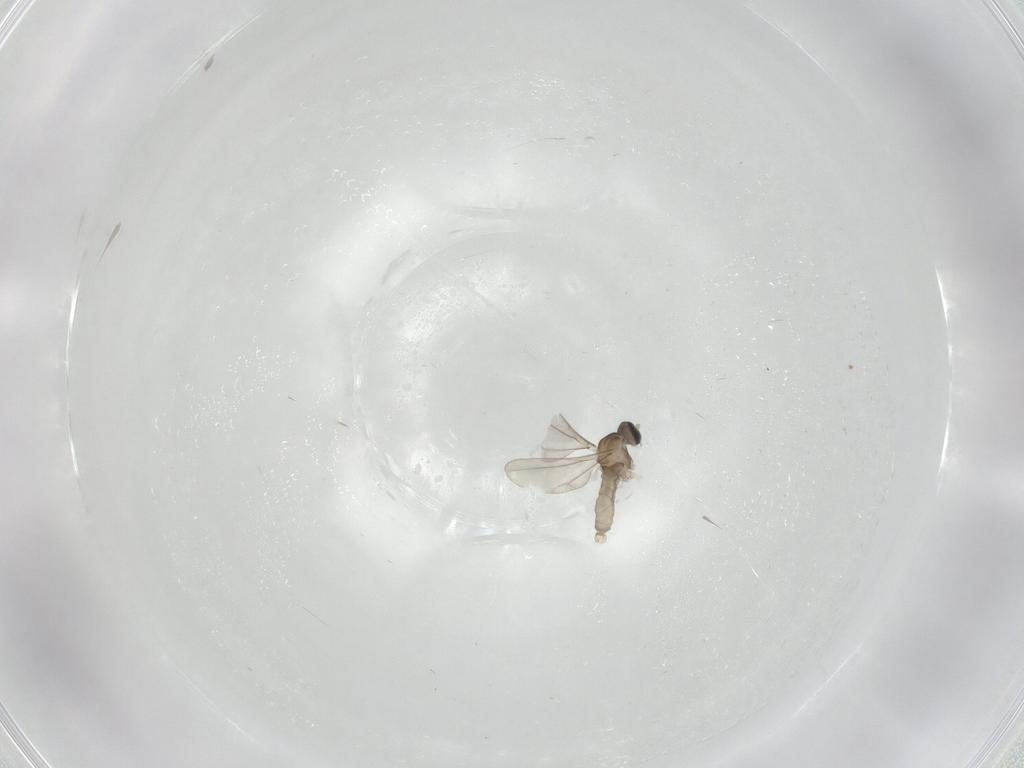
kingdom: Animalia
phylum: Arthropoda
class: Insecta
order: Diptera
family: Cecidomyiidae
